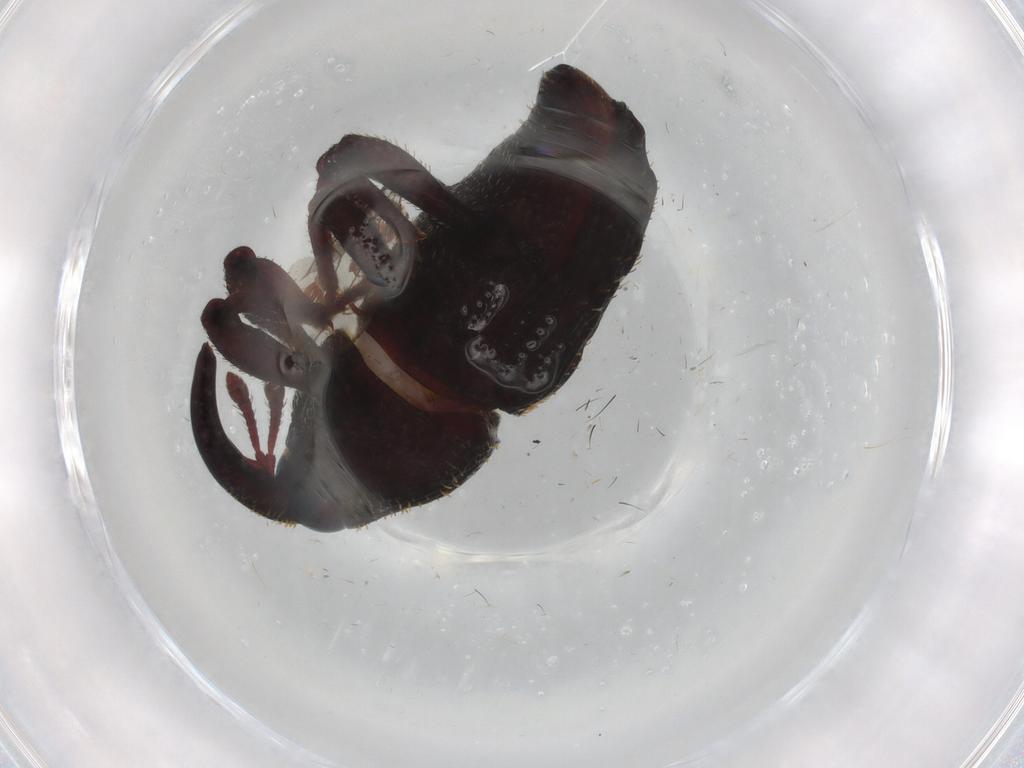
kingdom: Animalia
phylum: Arthropoda
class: Insecta
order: Coleoptera
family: Curculionidae
